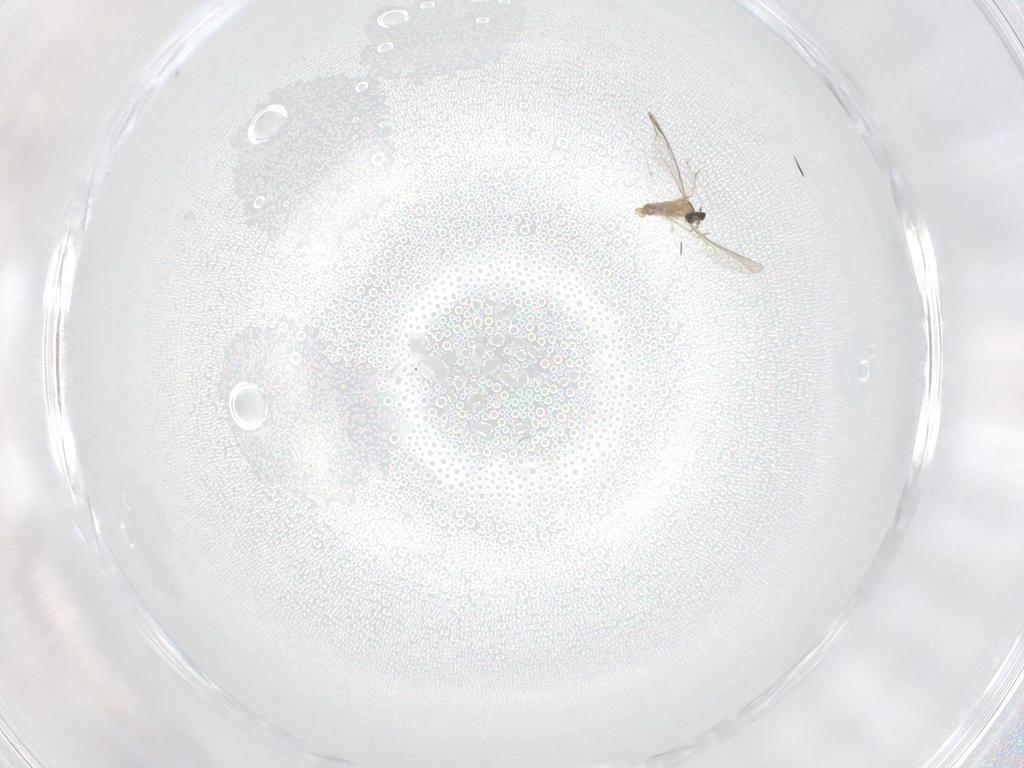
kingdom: Animalia
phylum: Arthropoda
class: Insecta
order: Diptera
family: Cecidomyiidae
